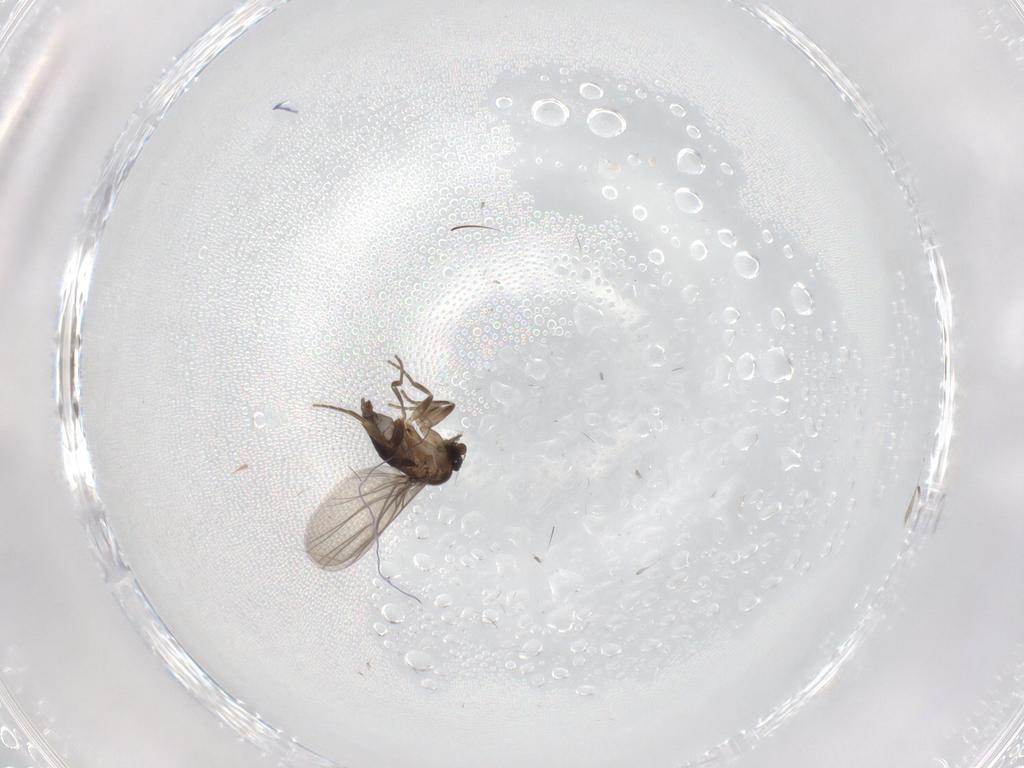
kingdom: Animalia
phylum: Arthropoda
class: Insecta
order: Diptera
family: Phoridae
